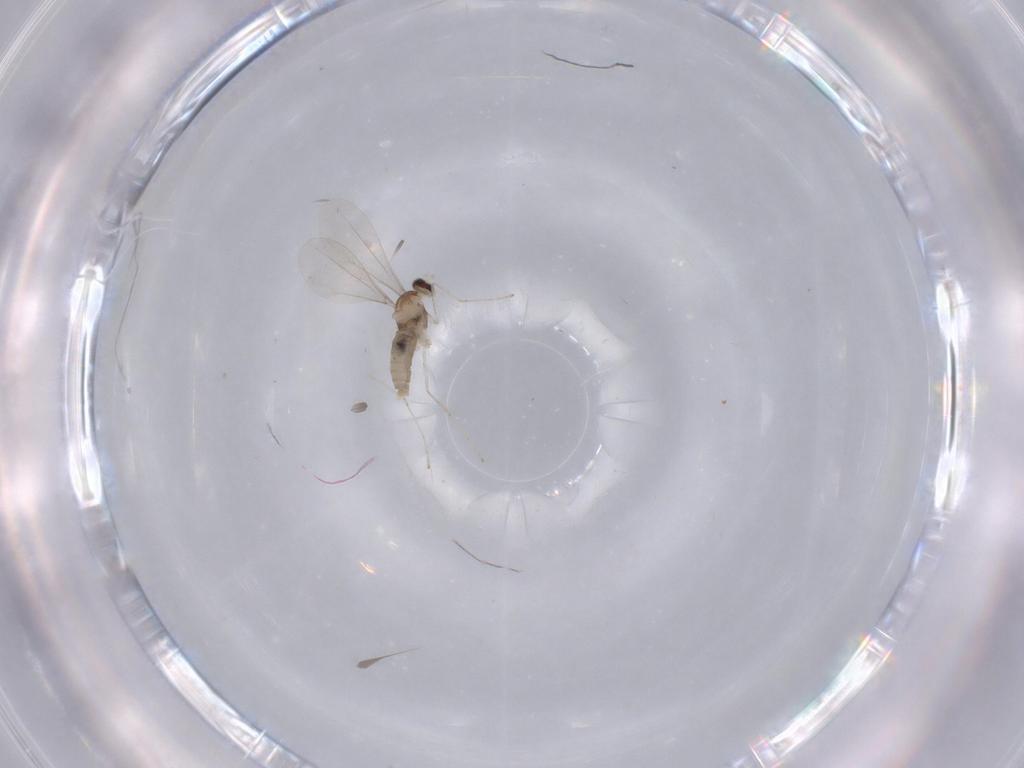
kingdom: Animalia
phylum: Arthropoda
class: Insecta
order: Diptera
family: Cecidomyiidae
